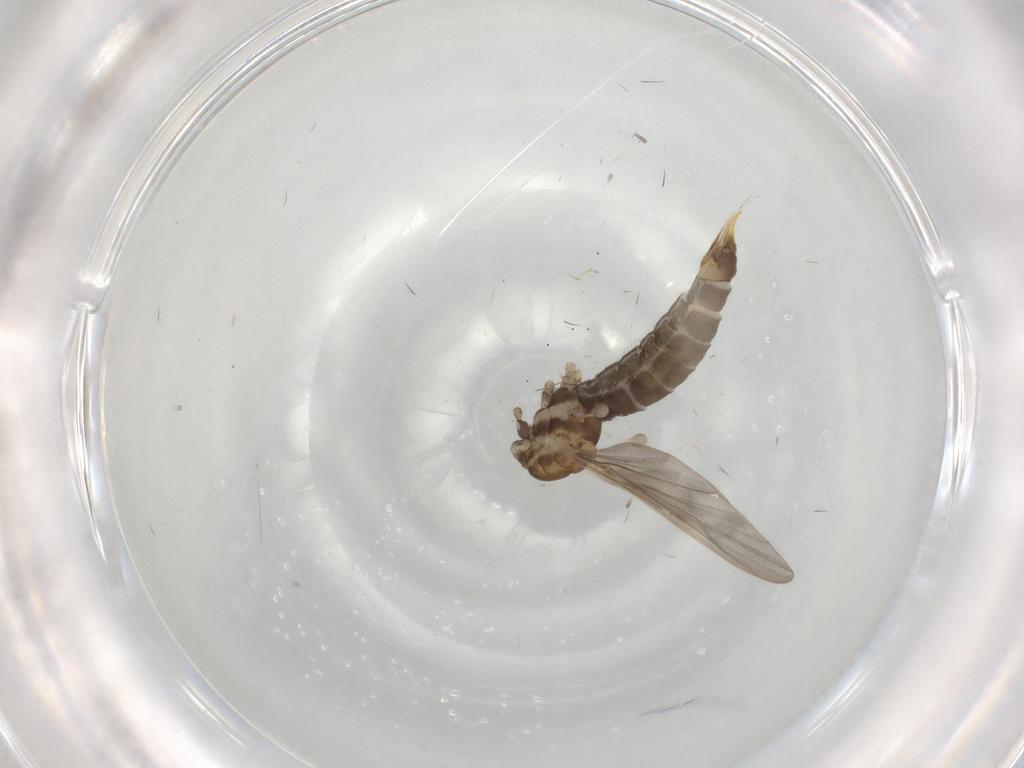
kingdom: Animalia
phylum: Arthropoda
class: Insecta
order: Diptera
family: Limoniidae
